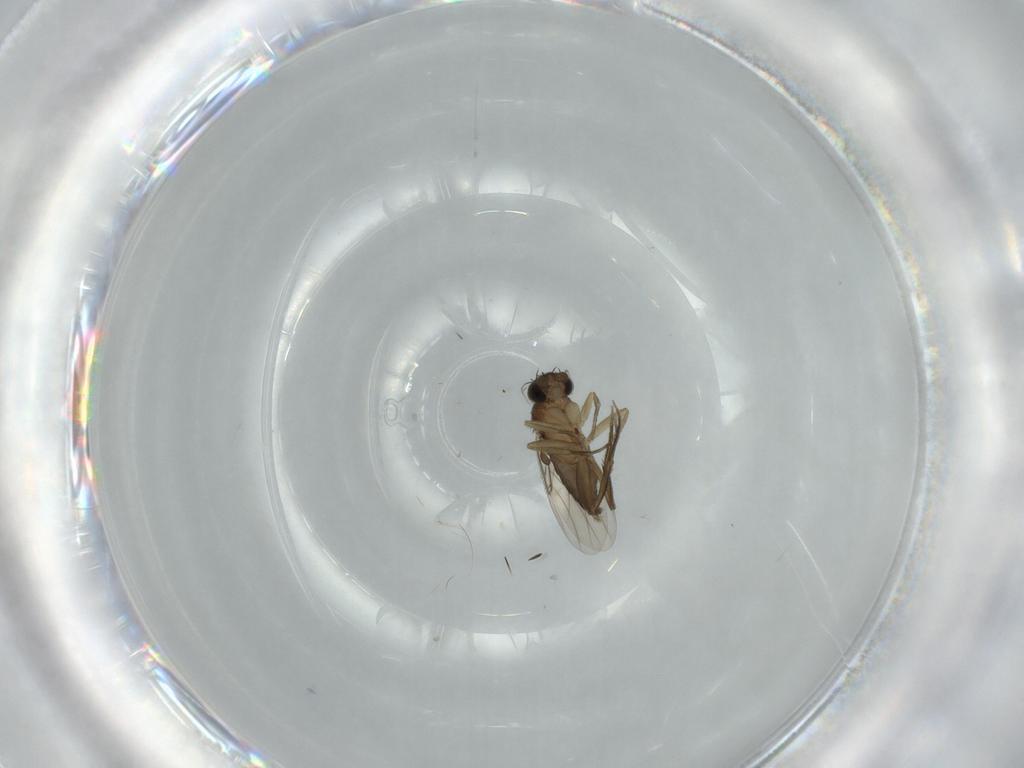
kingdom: Animalia
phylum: Arthropoda
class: Insecta
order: Diptera
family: Phoridae
